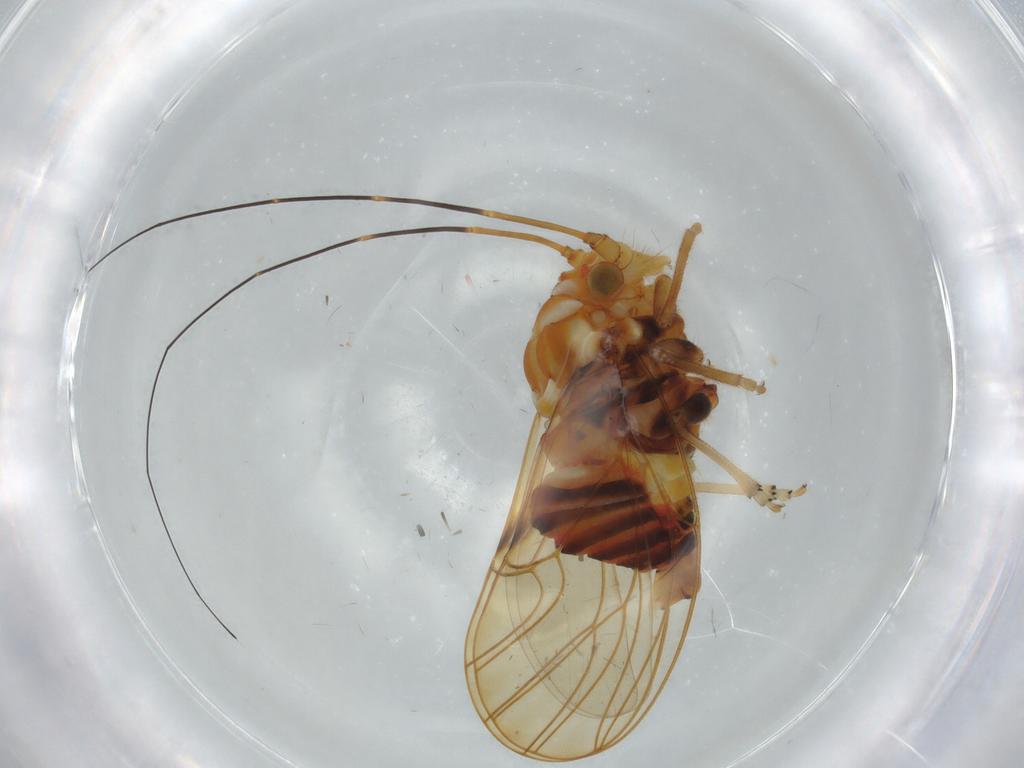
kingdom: Animalia
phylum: Arthropoda
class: Insecta
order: Hemiptera
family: Psyllidae
